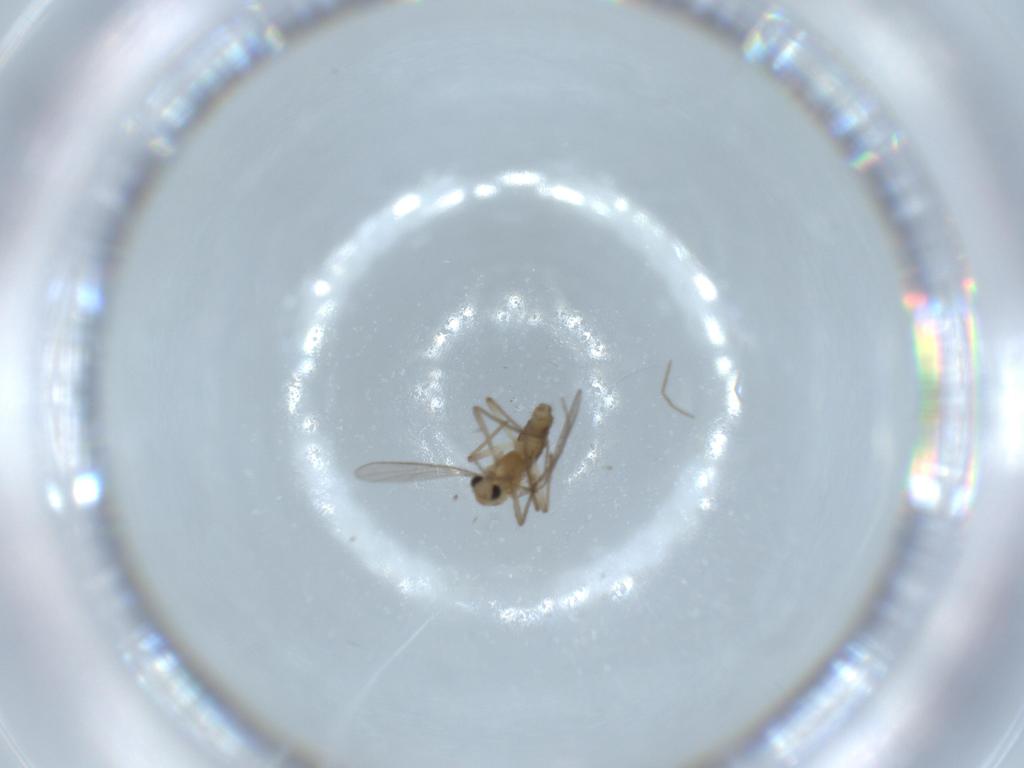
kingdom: Animalia
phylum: Arthropoda
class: Insecta
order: Diptera
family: Chironomidae
